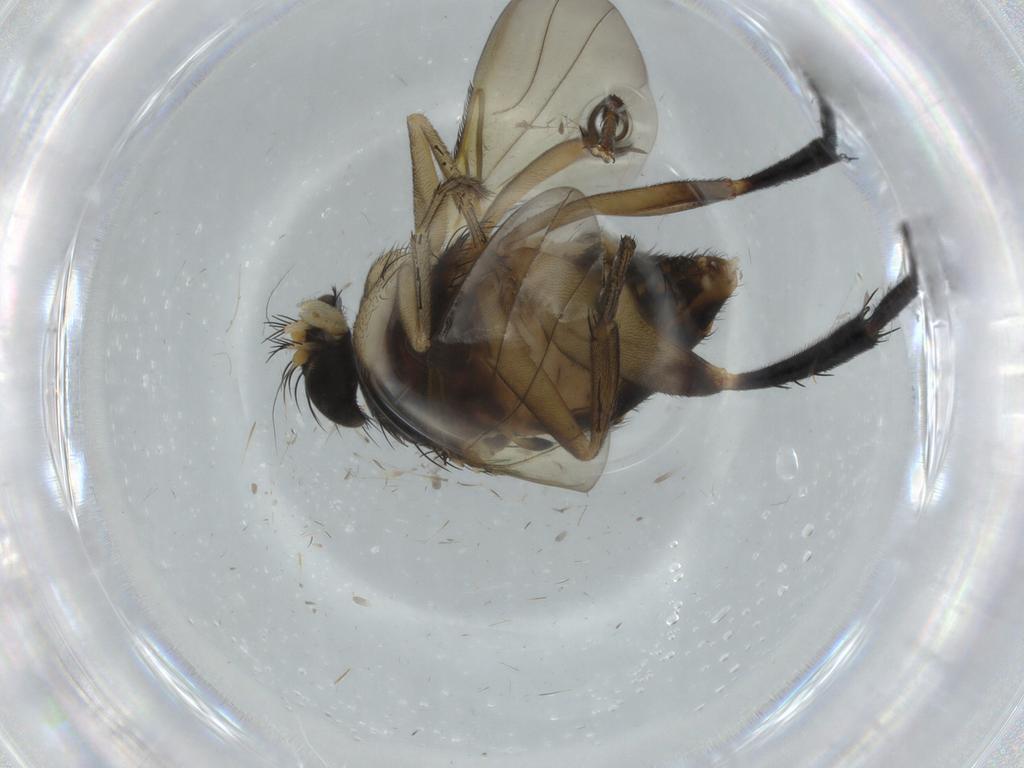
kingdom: Animalia
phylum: Arthropoda
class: Insecta
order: Diptera
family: Phoridae
